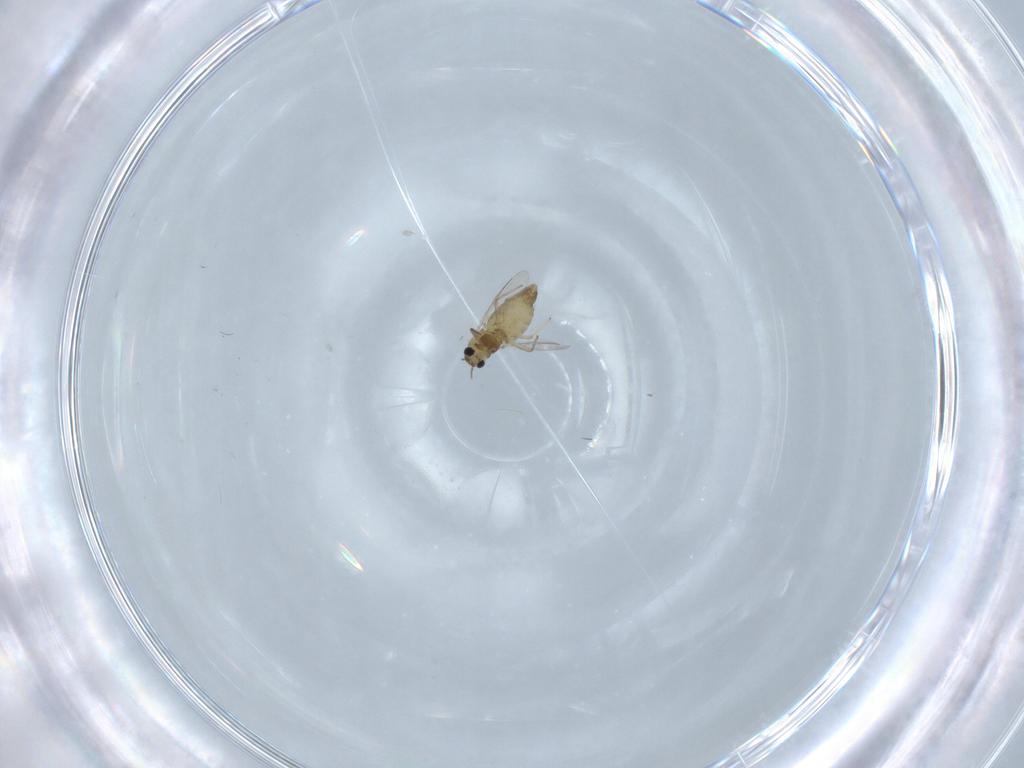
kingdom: Animalia
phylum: Arthropoda
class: Insecta
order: Diptera
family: Chironomidae
